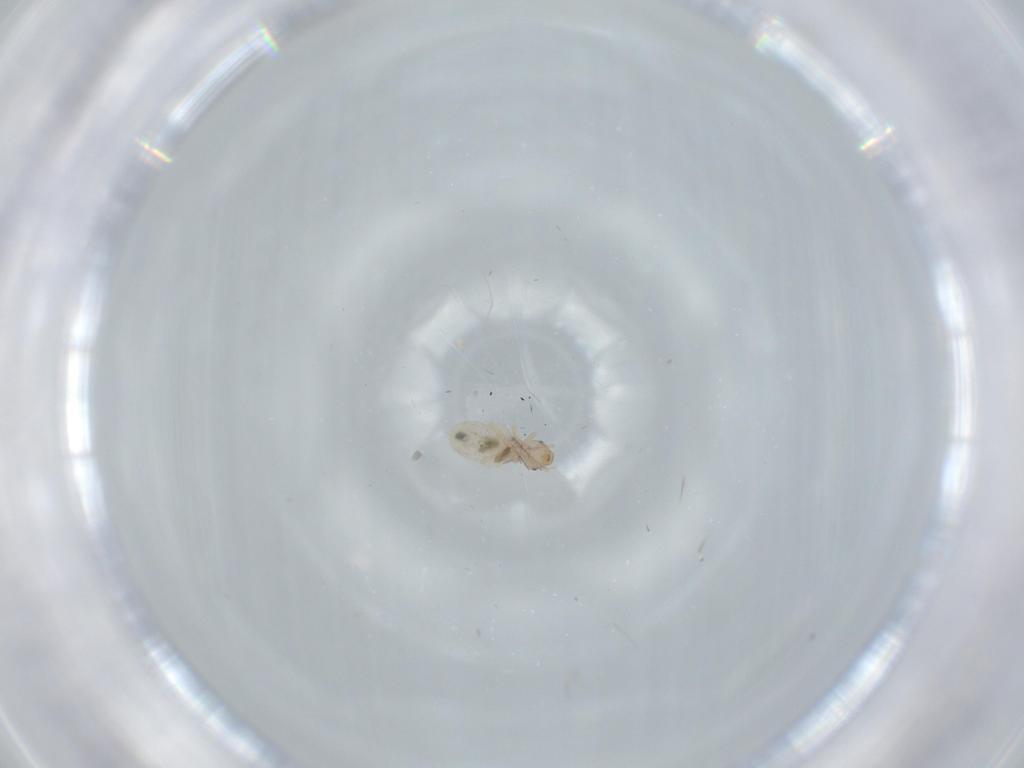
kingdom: Animalia
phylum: Arthropoda
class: Insecta
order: Psocodea
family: Liposcelididae
